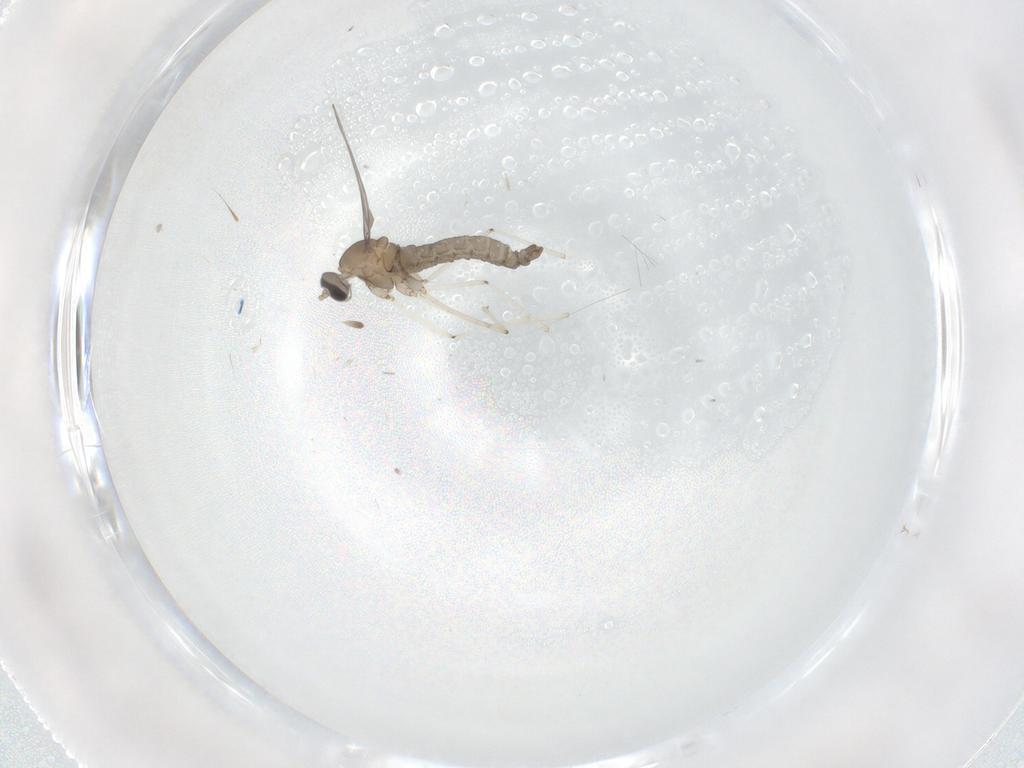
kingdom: Animalia
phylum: Arthropoda
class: Insecta
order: Diptera
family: Cecidomyiidae
